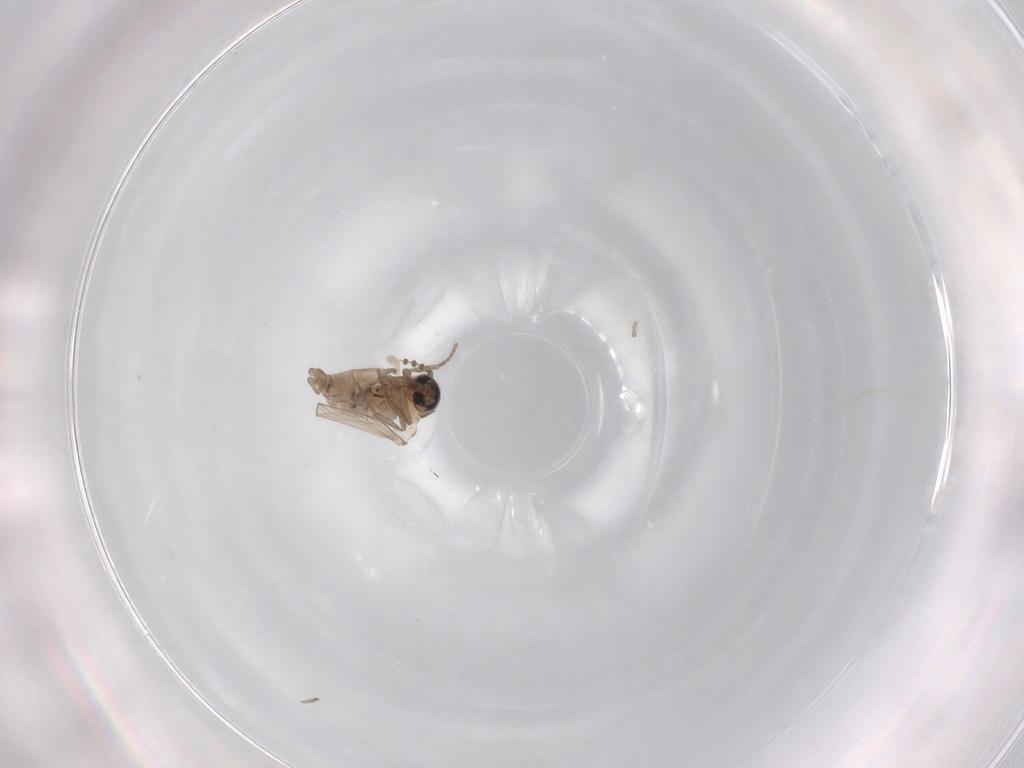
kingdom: Animalia
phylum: Arthropoda
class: Insecta
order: Diptera
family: Psychodidae
